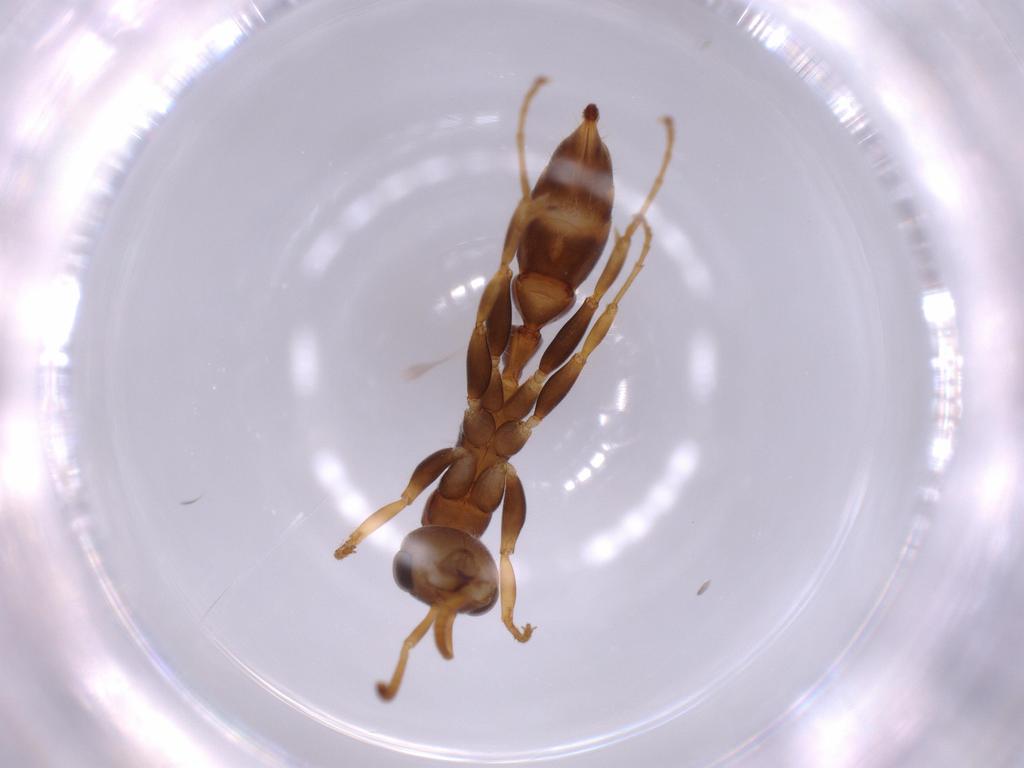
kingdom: Animalia
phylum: Arthropoda
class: Insecta
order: Hymenoptera
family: Formicidae
